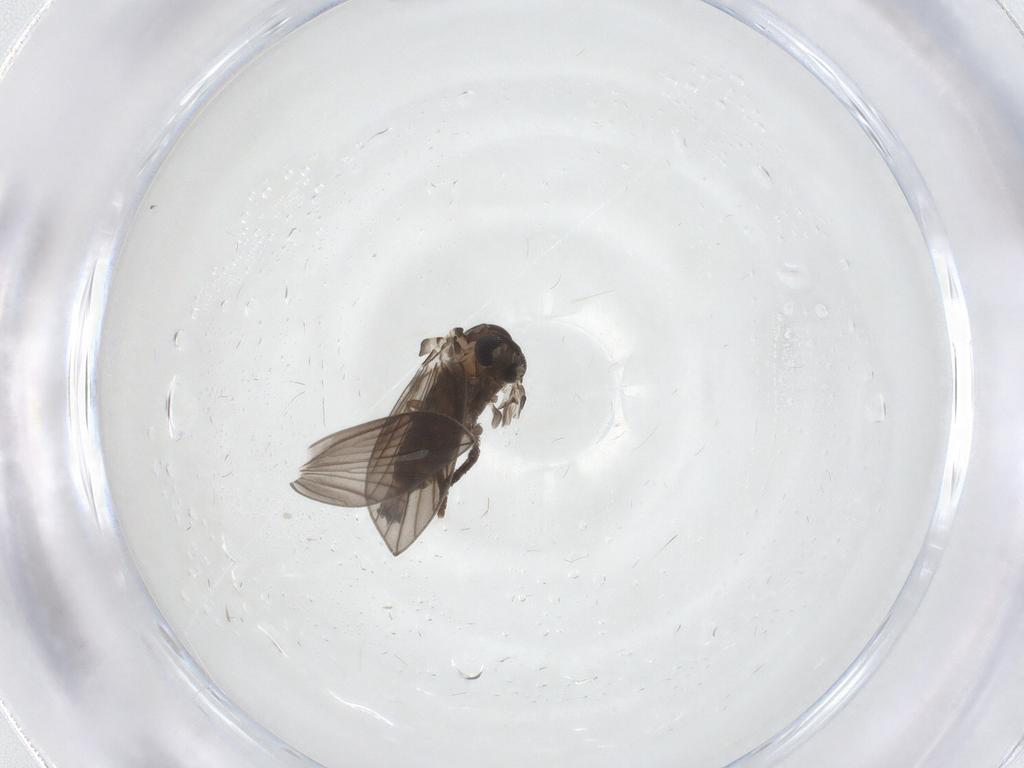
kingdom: Animalia
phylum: Arthropoda
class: Insecta
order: Diptera
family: Psychodidae
